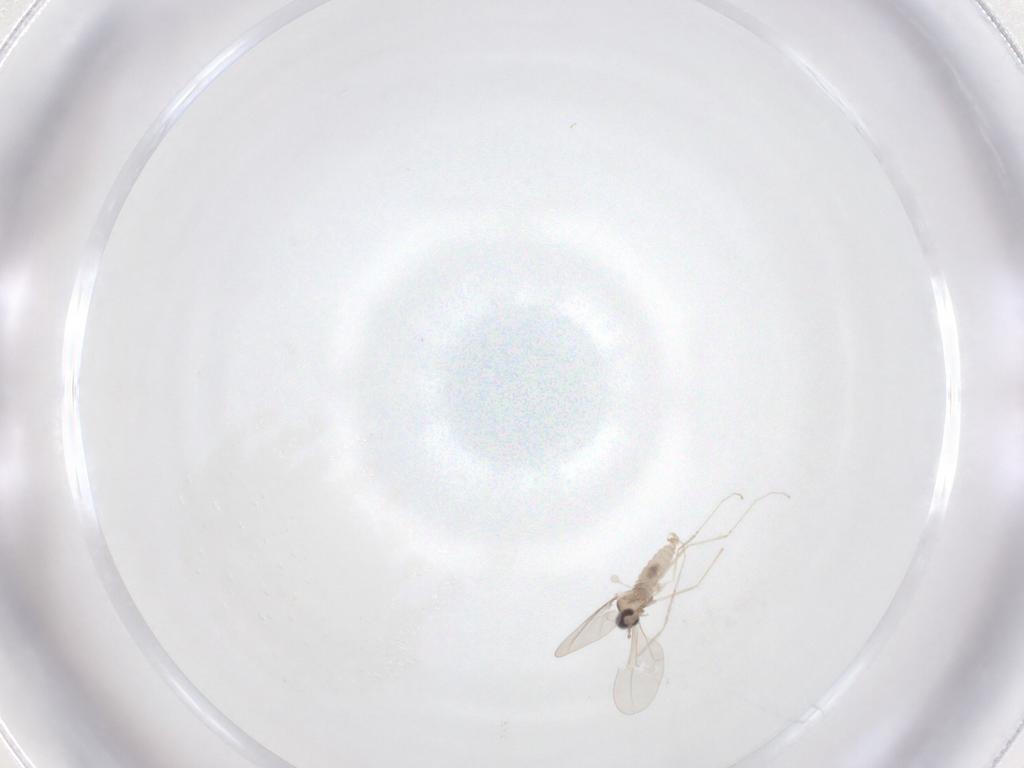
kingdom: Animalia
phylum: Arthropoda
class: Insecta
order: Diptera
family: Cecidomyiidae
